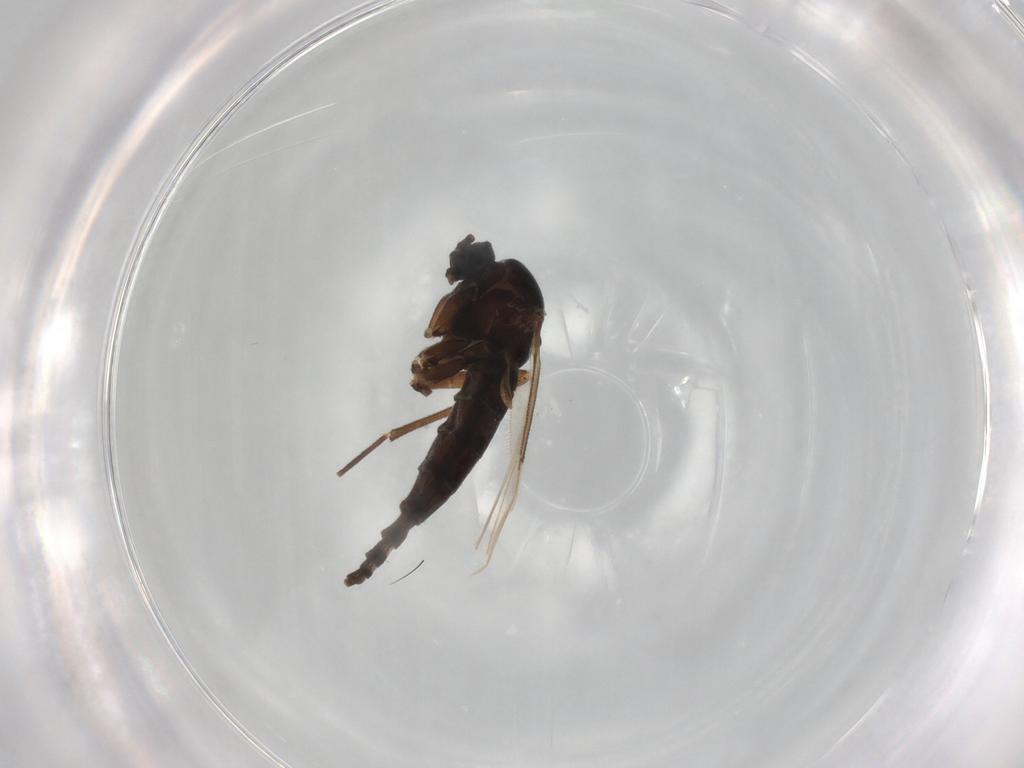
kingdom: Animalia
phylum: Arthropoda
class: Insecta
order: Diptera
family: Sciaridae
